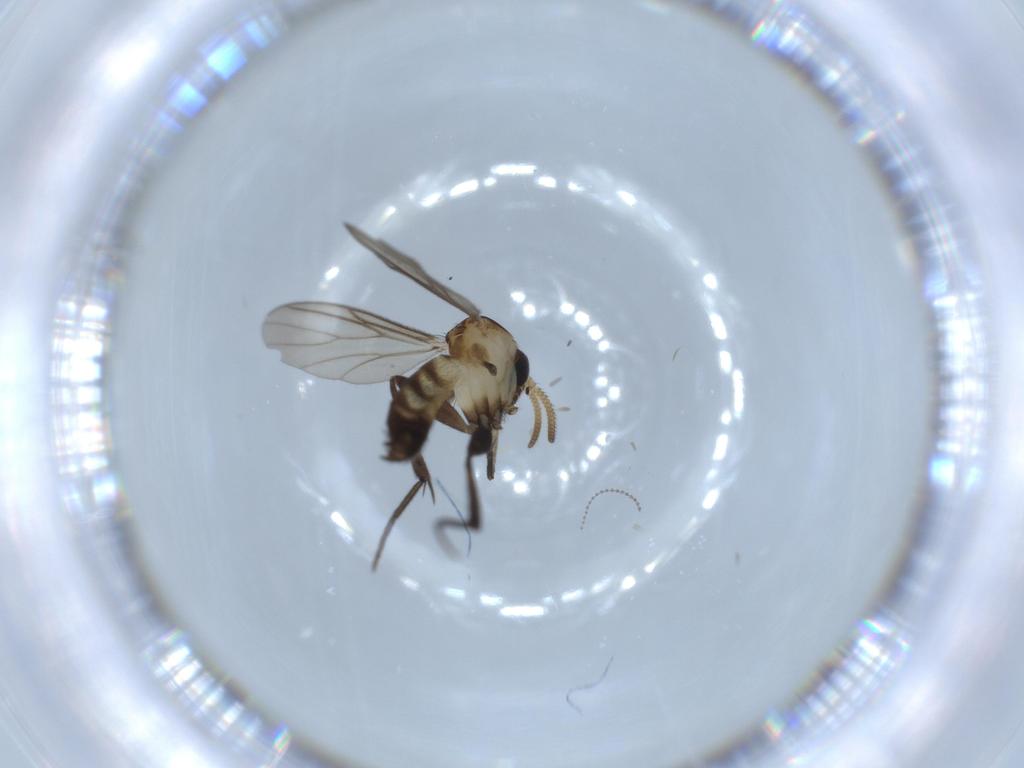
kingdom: Animalia
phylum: Arthropoda
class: Insecta
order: Diptera
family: Cecidomyiidae
